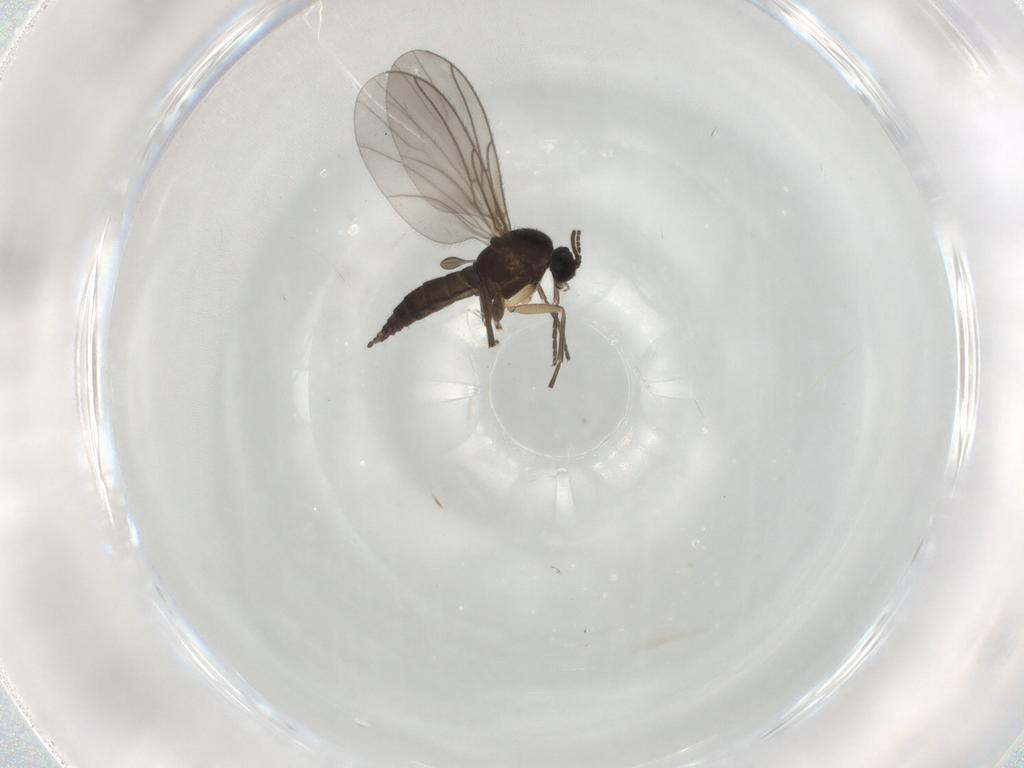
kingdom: Animalia
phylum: Arthropoda
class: Insecta
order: Diptera
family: Sciaridae
